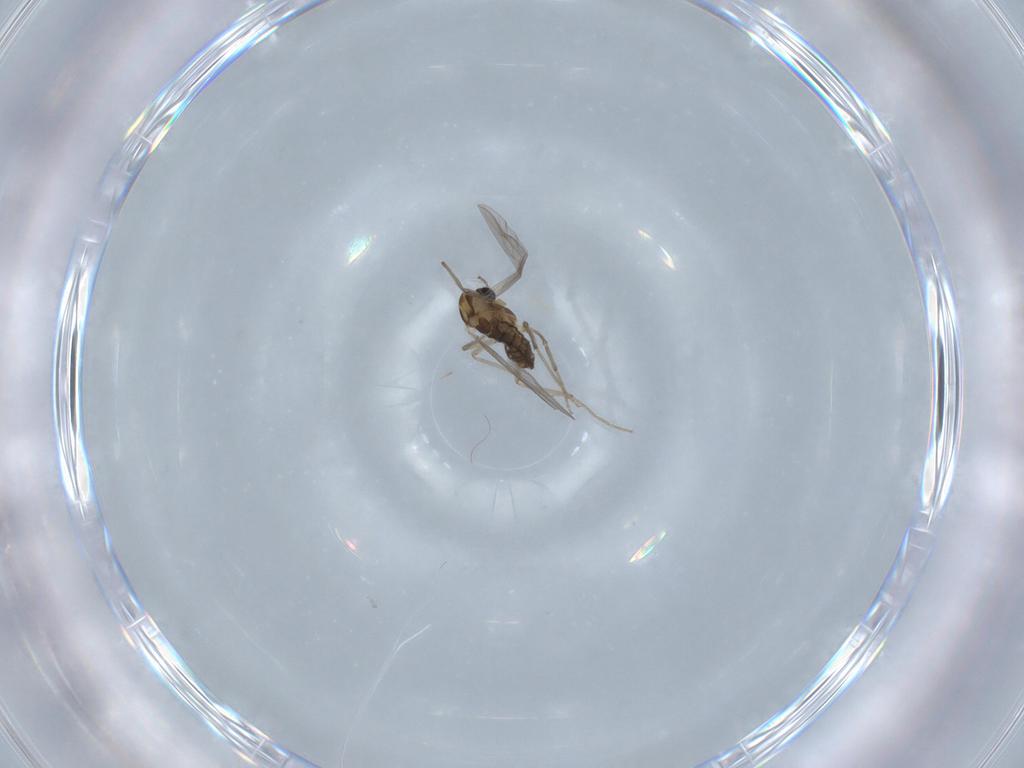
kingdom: Animalia
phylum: Arthropoda
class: Insecta
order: Diptera
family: Chironomidae
